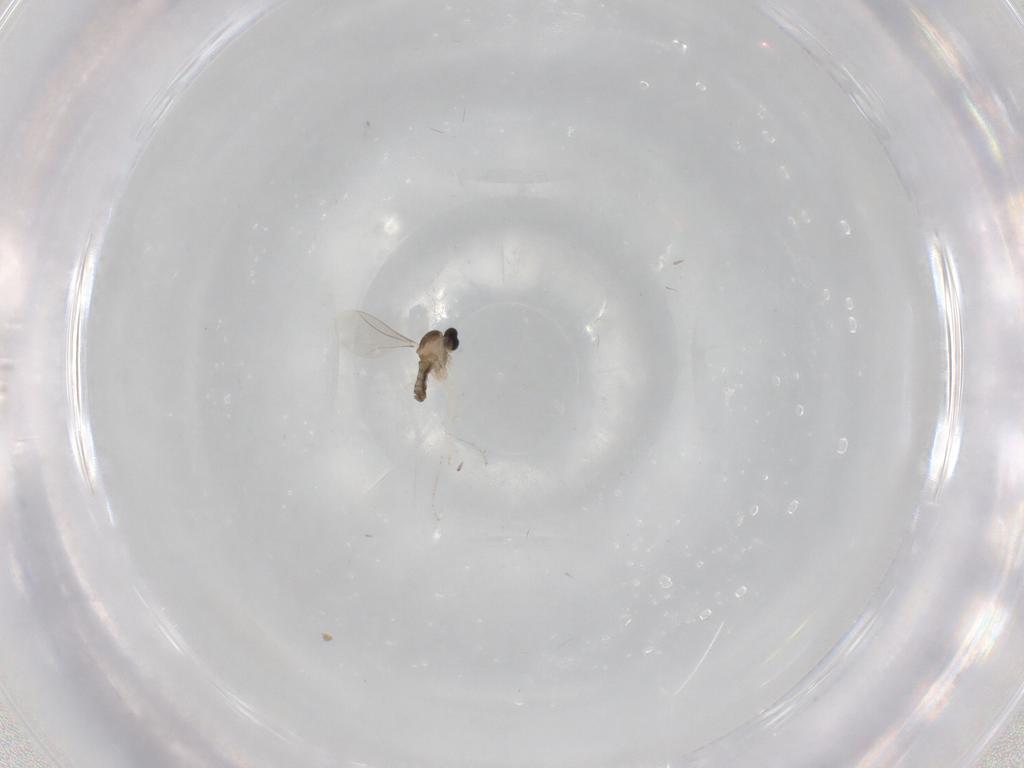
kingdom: Animalia
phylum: Arthropoda
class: Insecta
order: Diptera
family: Cecidomyiidae
